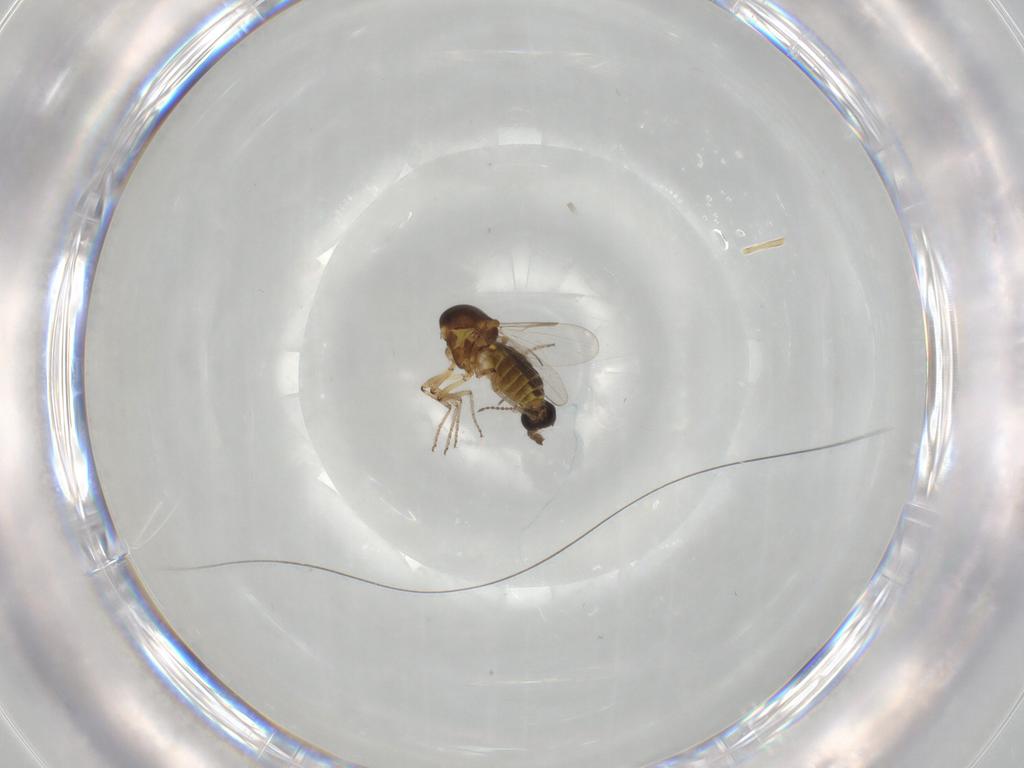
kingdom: Animalia
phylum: Arthropoda
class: Insecta
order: Diptera
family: Ceratopogonidae
